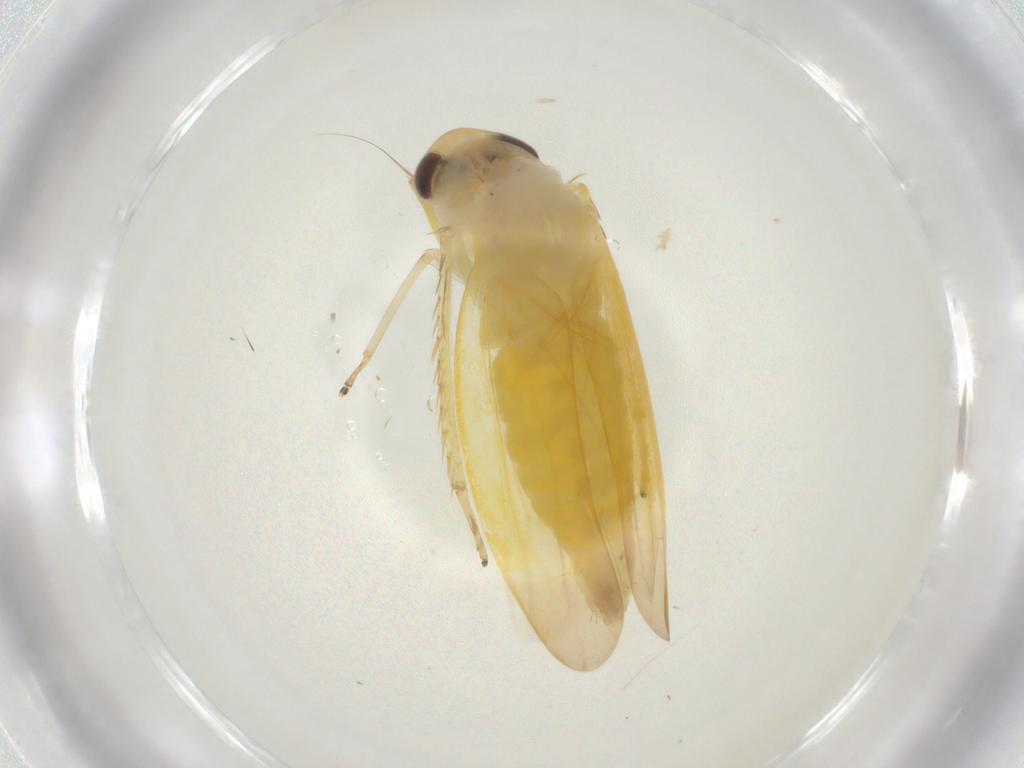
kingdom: Animalia
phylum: Arthropoda
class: Insecta
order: Hemiptera
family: Cicadellidae
